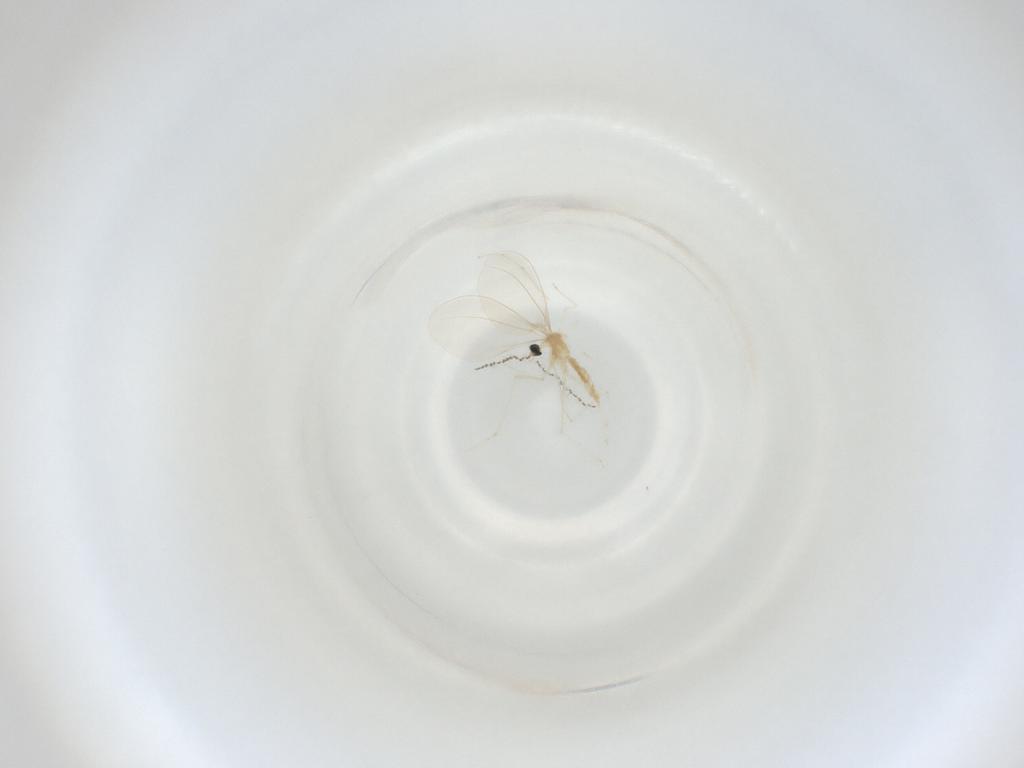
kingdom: Animalia
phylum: Arthropoda
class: Insecta
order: Diptera
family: Cecidomyiidae
